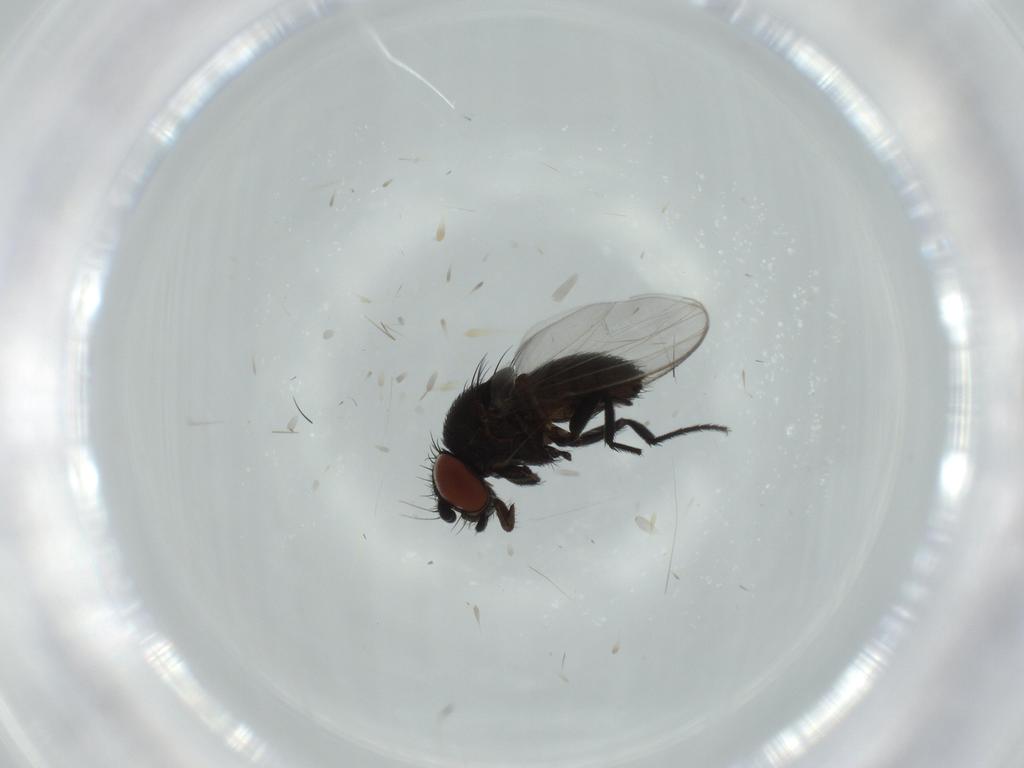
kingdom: Animalia
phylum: Arthropoda
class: Insecta
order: Diptera
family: Milichiidae
